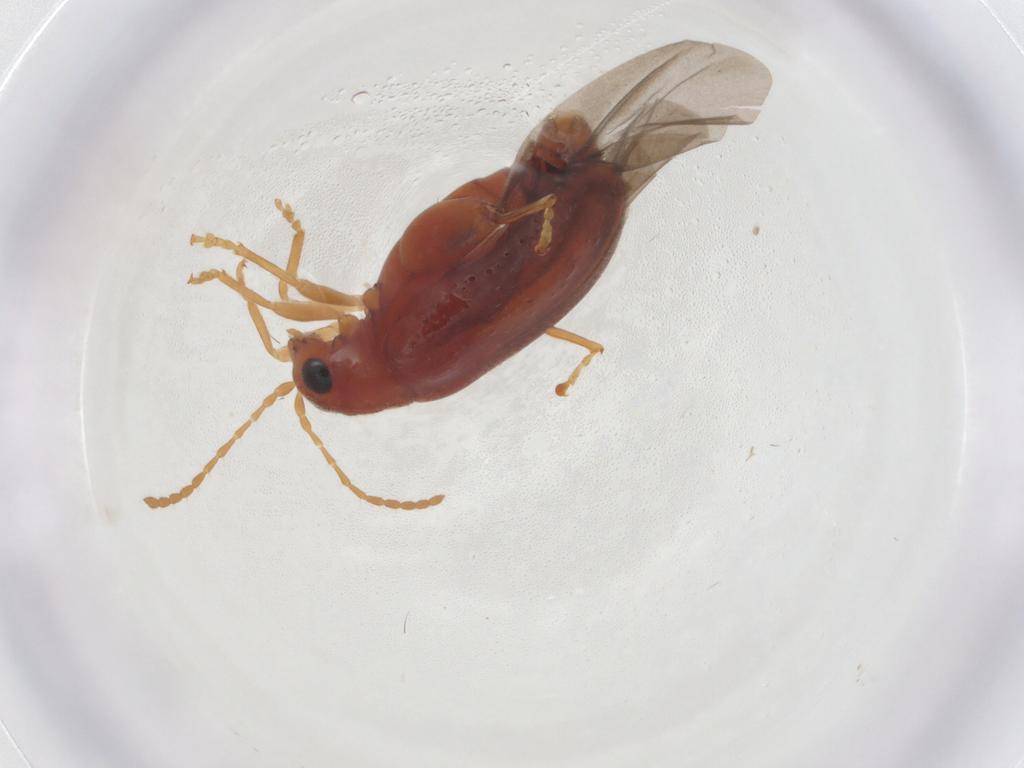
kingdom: Animalia
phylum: Arthropoda
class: Insecta
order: Coleoptera
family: Chrysomelidae
